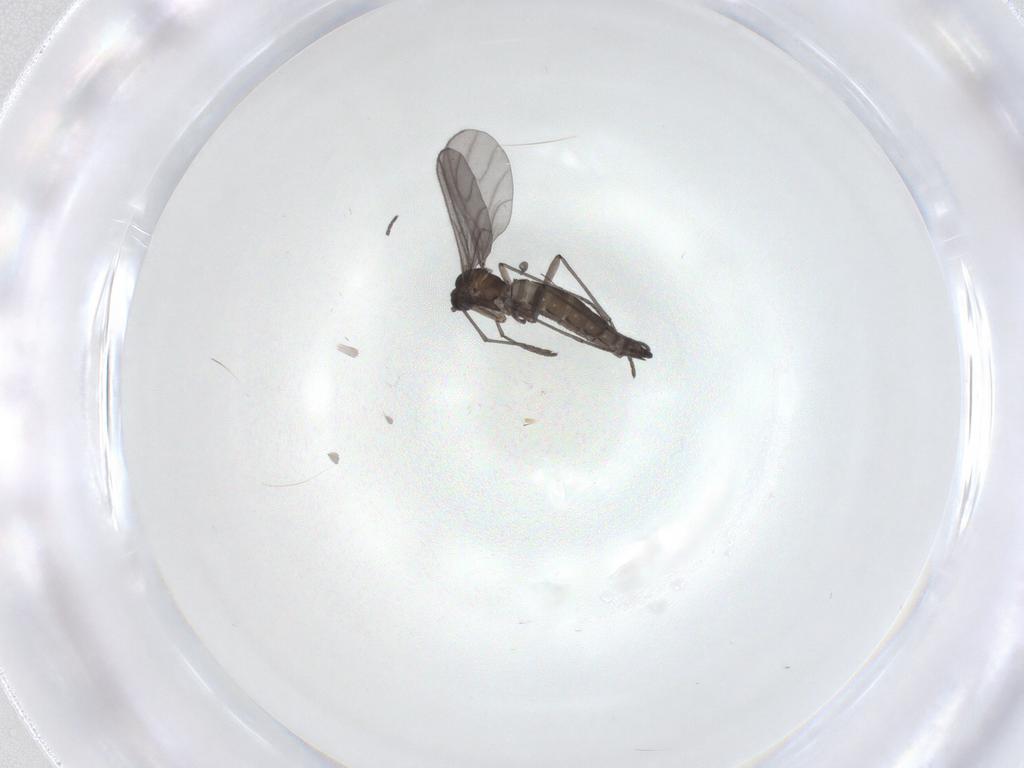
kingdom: Animalia
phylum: Arthropoda
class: Insecta
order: Diptera
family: Sciaridae
